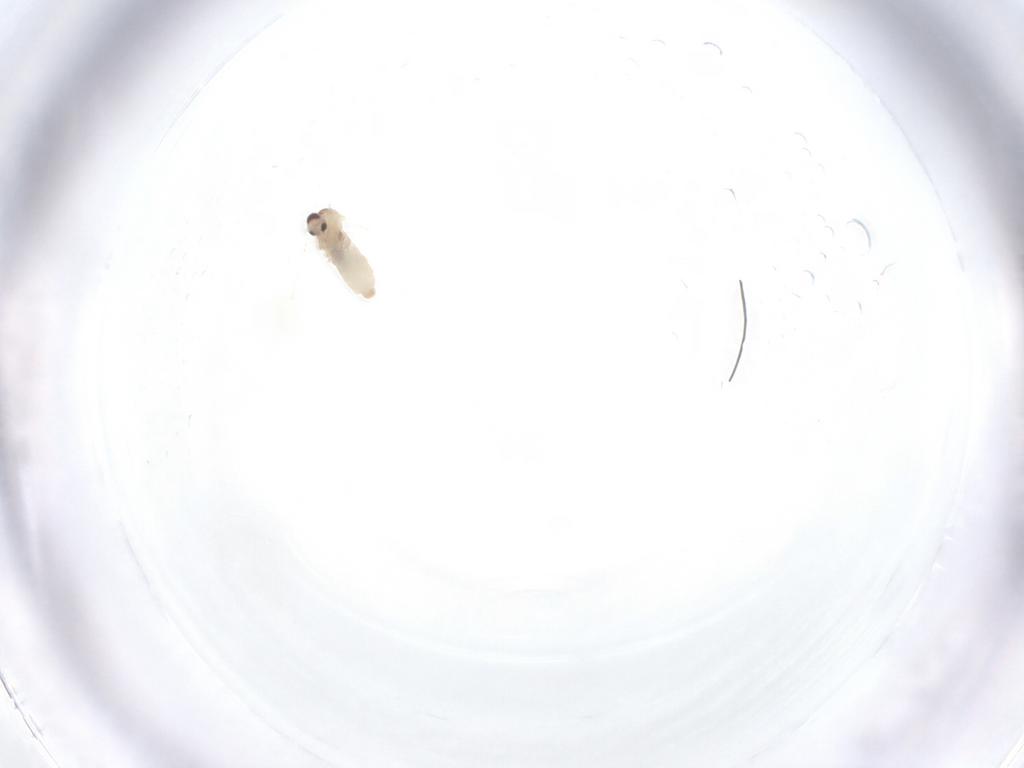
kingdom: Animalia
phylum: Arthropoda
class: Insecta
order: Diptera
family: Cecidomyiidae
